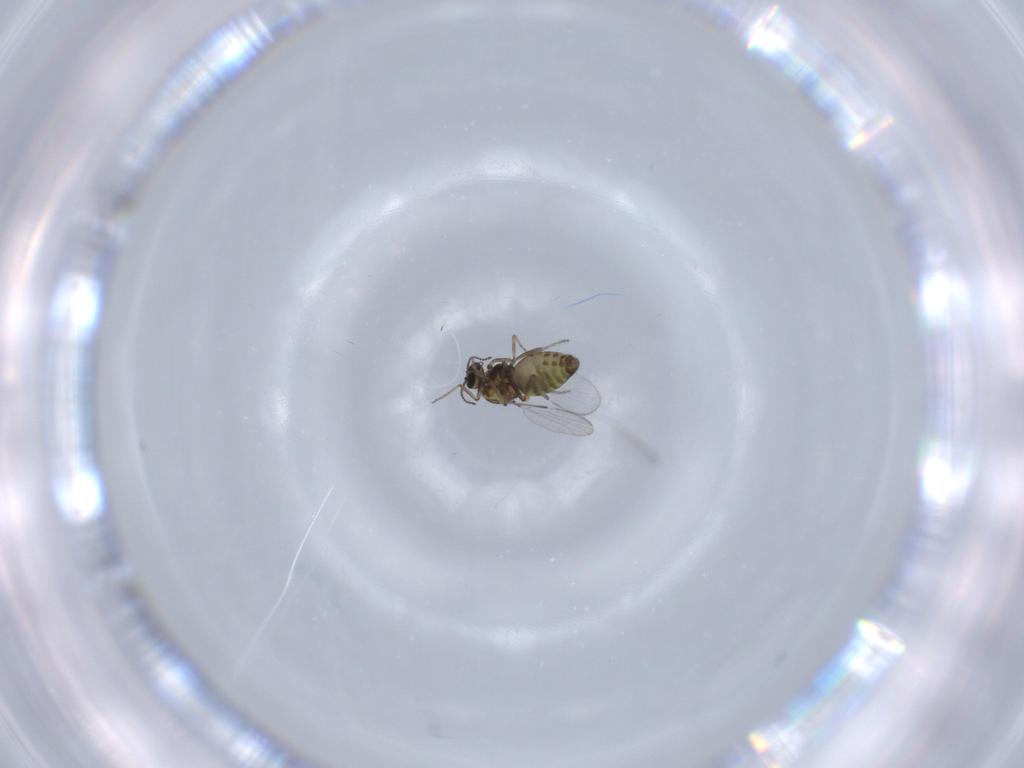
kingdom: Animalia
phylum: Arthropoda
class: Insecta
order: Diptera
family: Ceratopogonidae
